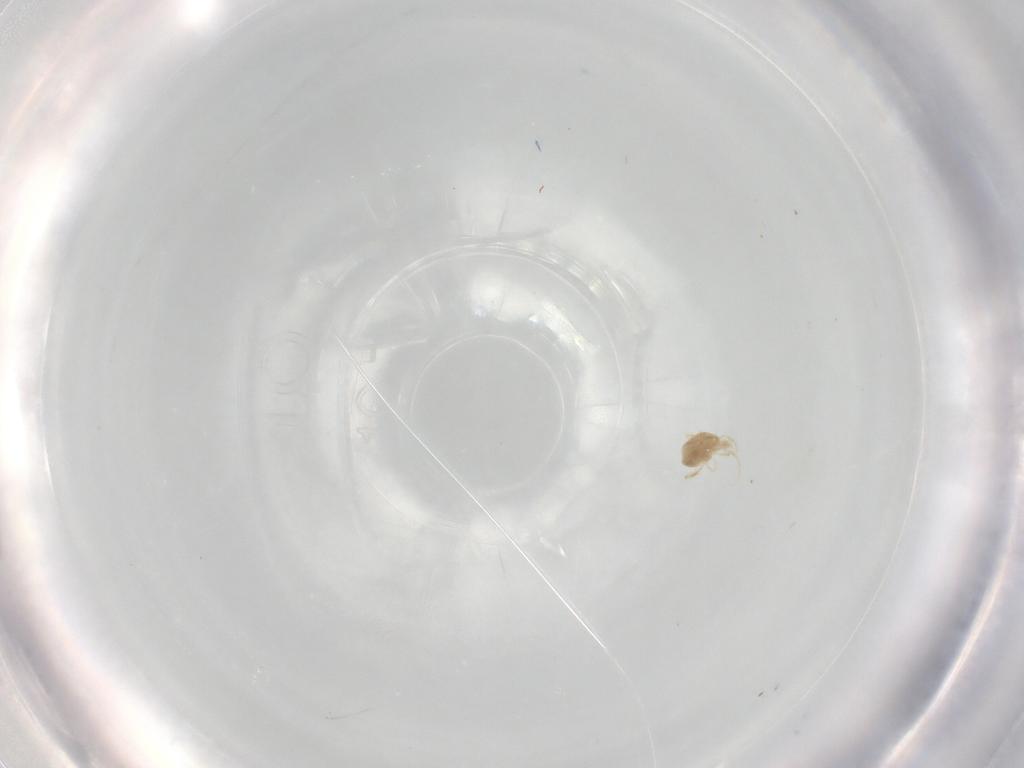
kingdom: Animalia
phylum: Arthropoda
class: Arachnida
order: Trombidiformes
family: Eupodidae
